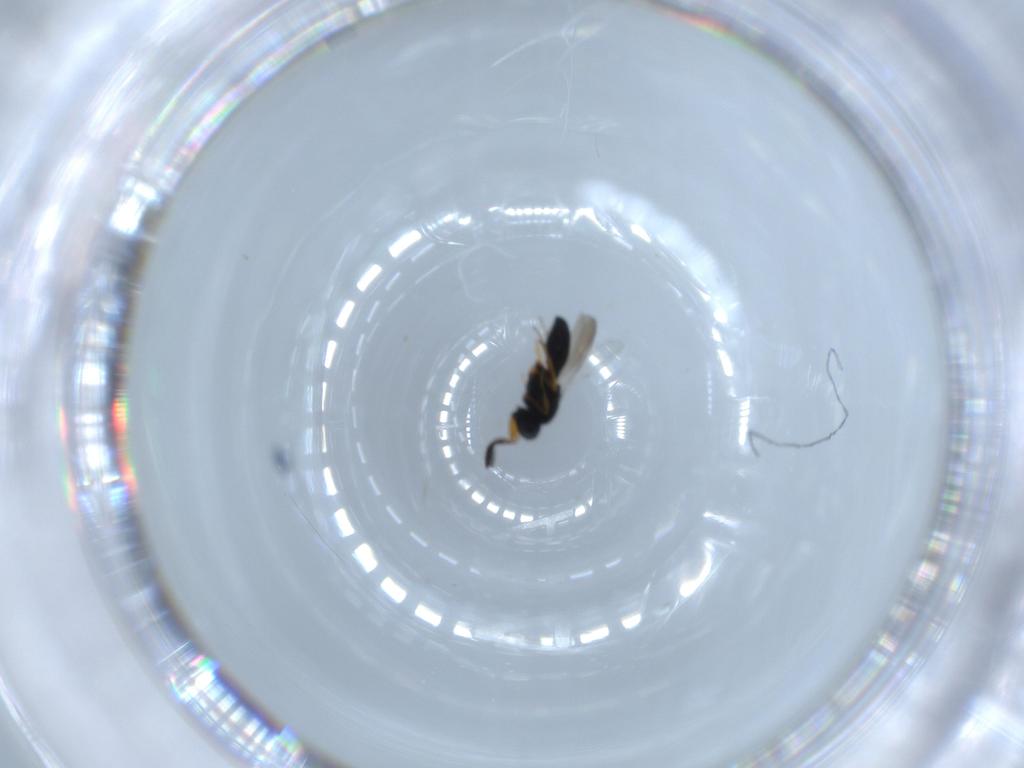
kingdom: Animalia
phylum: Arthropoda
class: Insecta
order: Hymenoptera
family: Scelionidae
